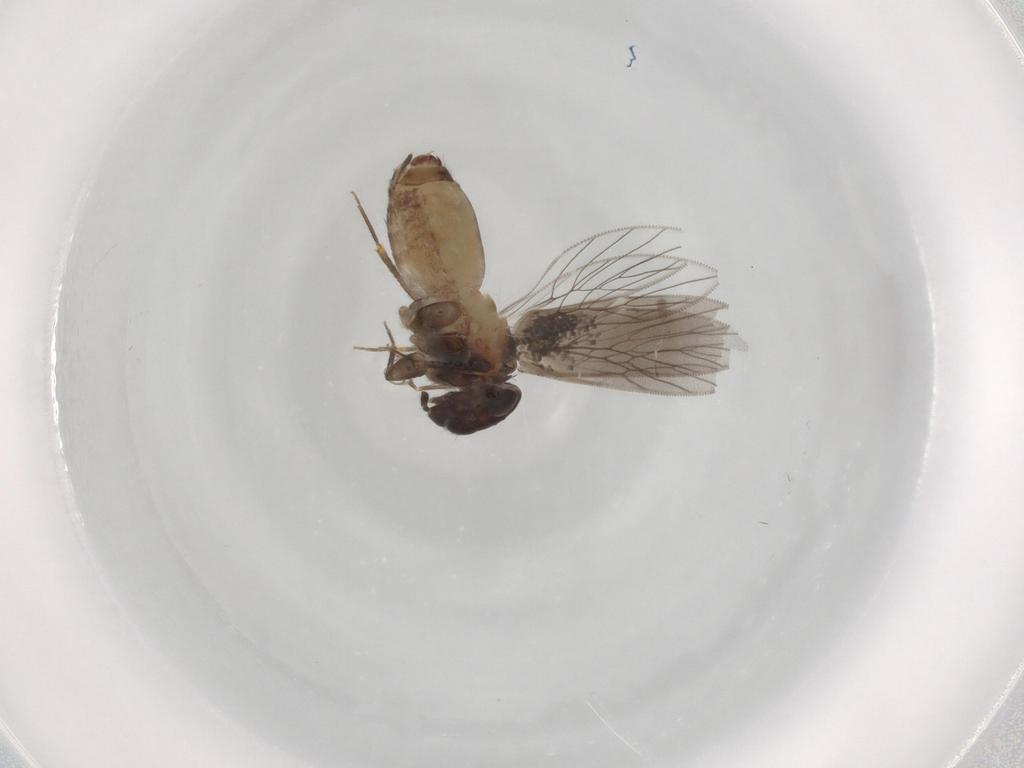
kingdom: Animalia
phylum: Arthropoda
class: Insecta
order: Psocodea
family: Lepidopsocidae
